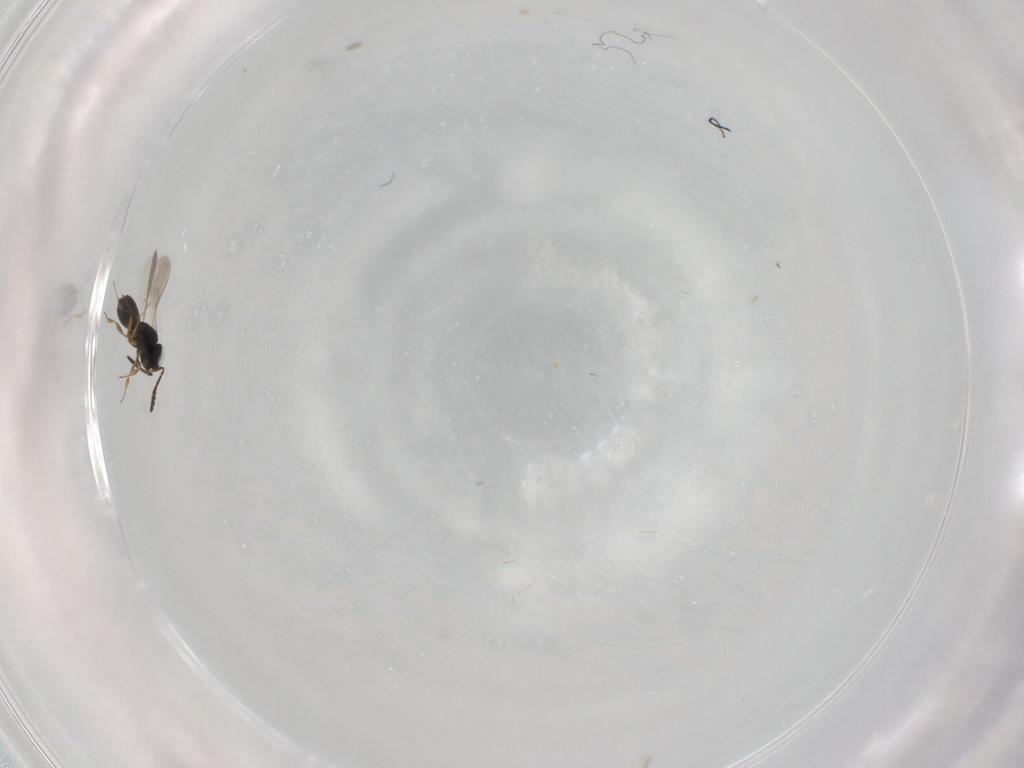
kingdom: Animalia
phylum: Arthropoda
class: Insecta
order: Hymenoptera
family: Scelionidae
